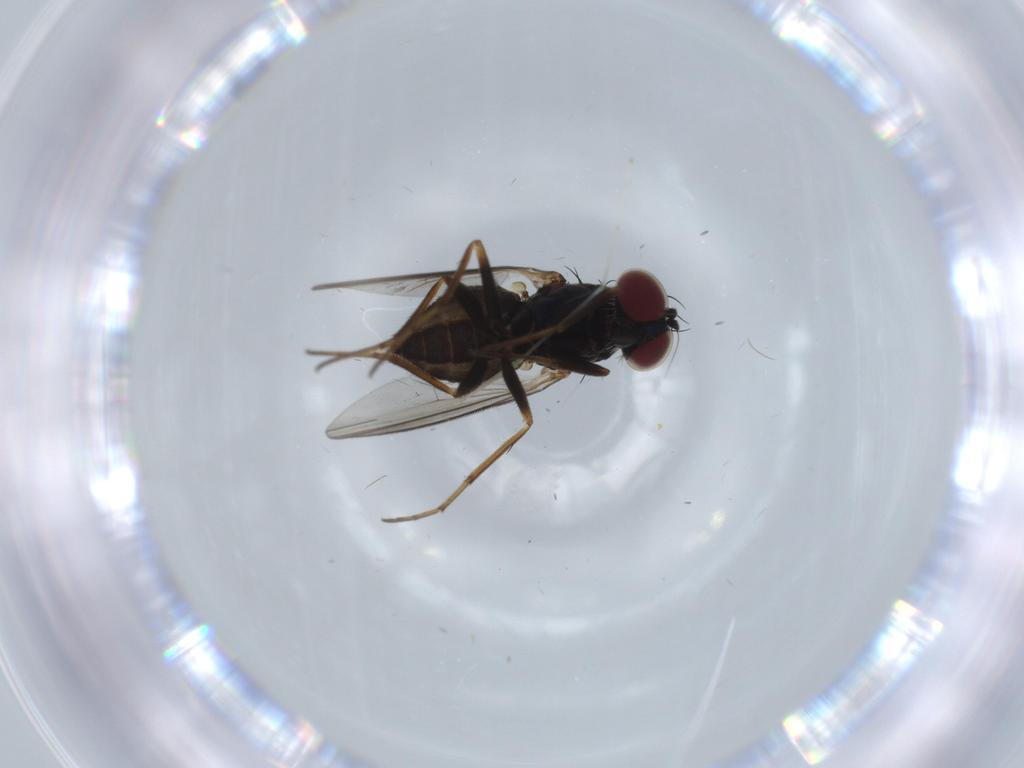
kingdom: Animalia
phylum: Arthropoda
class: Insecta
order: Diptera
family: Dolichopodidae
